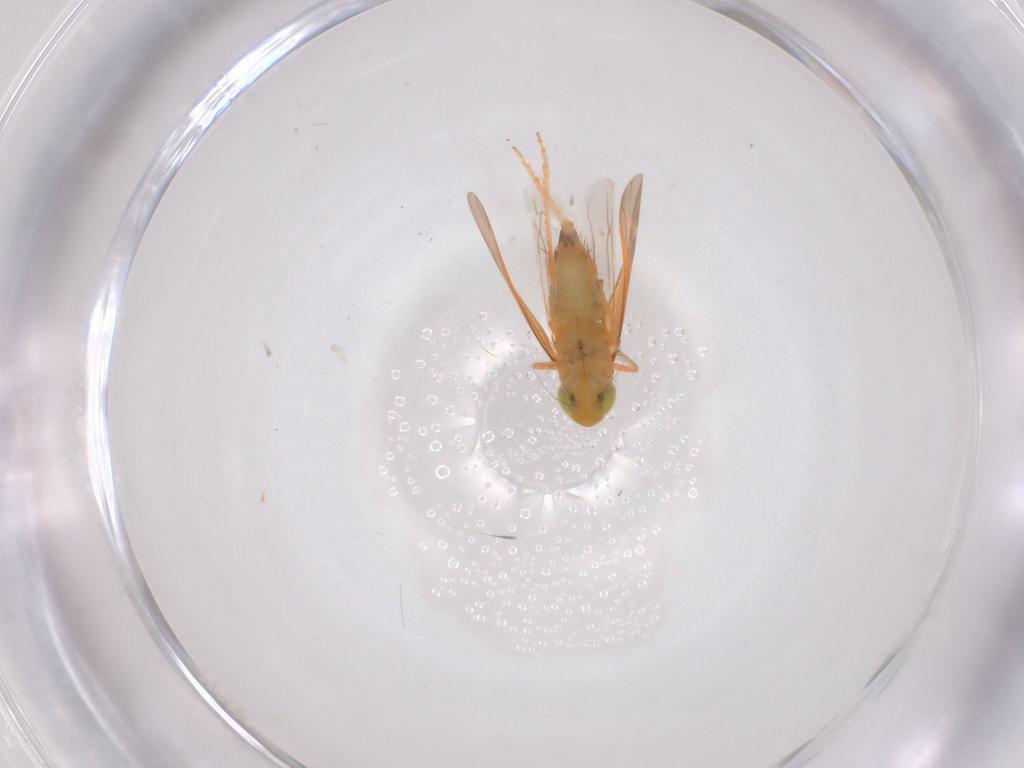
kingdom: Animalia
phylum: Arthropoda
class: Insecta
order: Hemiptera
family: Cicadellidae
